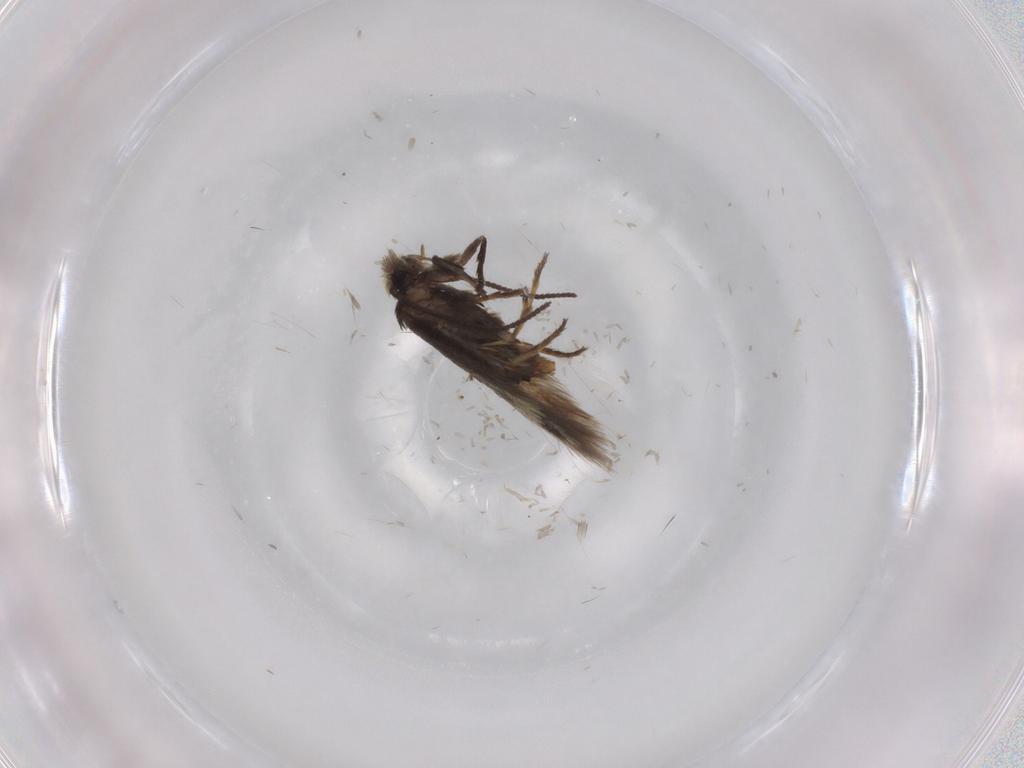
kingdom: Animalia
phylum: Arthropoda
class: Insecta
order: Lepidoptera
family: Nepticulidae
